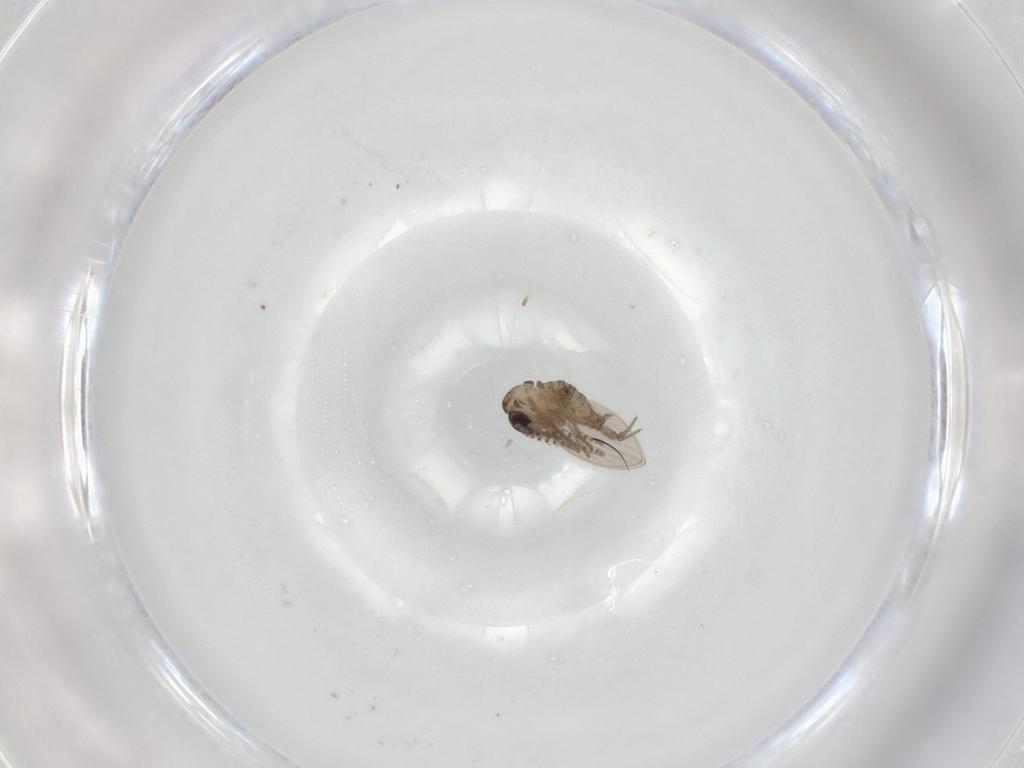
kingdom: Animalia
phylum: Arthropoda
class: Insecta
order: Diptera
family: Psychodidae
